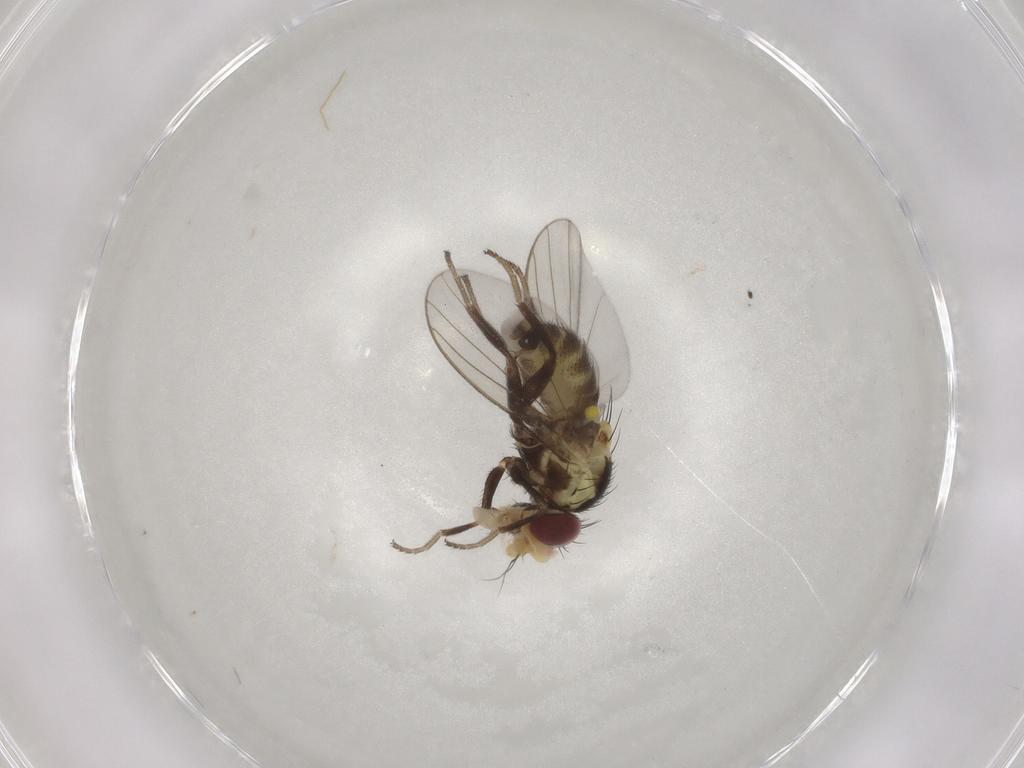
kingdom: Animalia
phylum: Arthropoda
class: Insecta
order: Diptera
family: Agromyzidae
